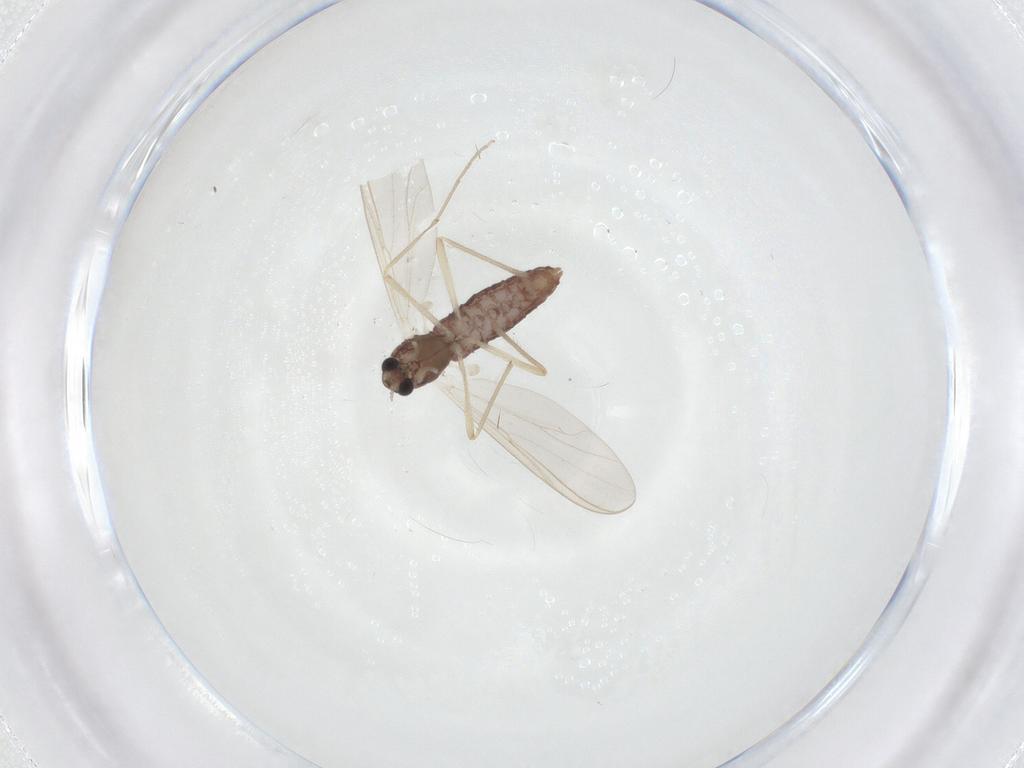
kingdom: Animalia
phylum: Arthropoda
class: Insecta
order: Diptera
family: Chironomidae
